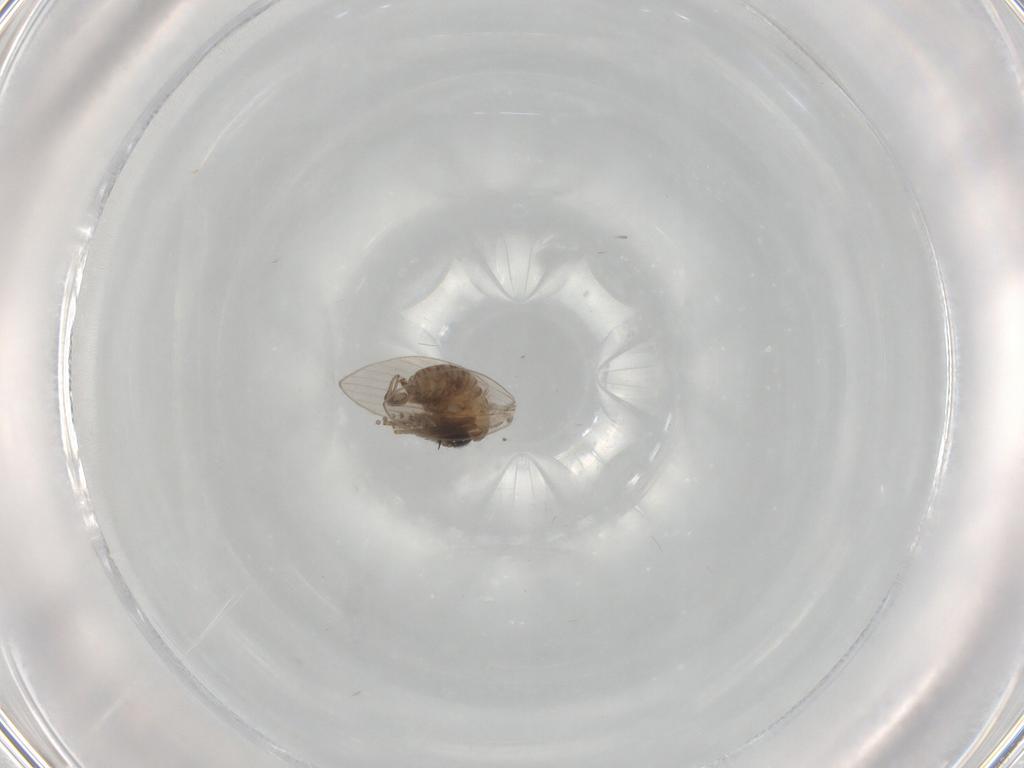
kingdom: Animalia
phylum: Arthropoda
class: Insecta
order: Diptera
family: Psychodidae
